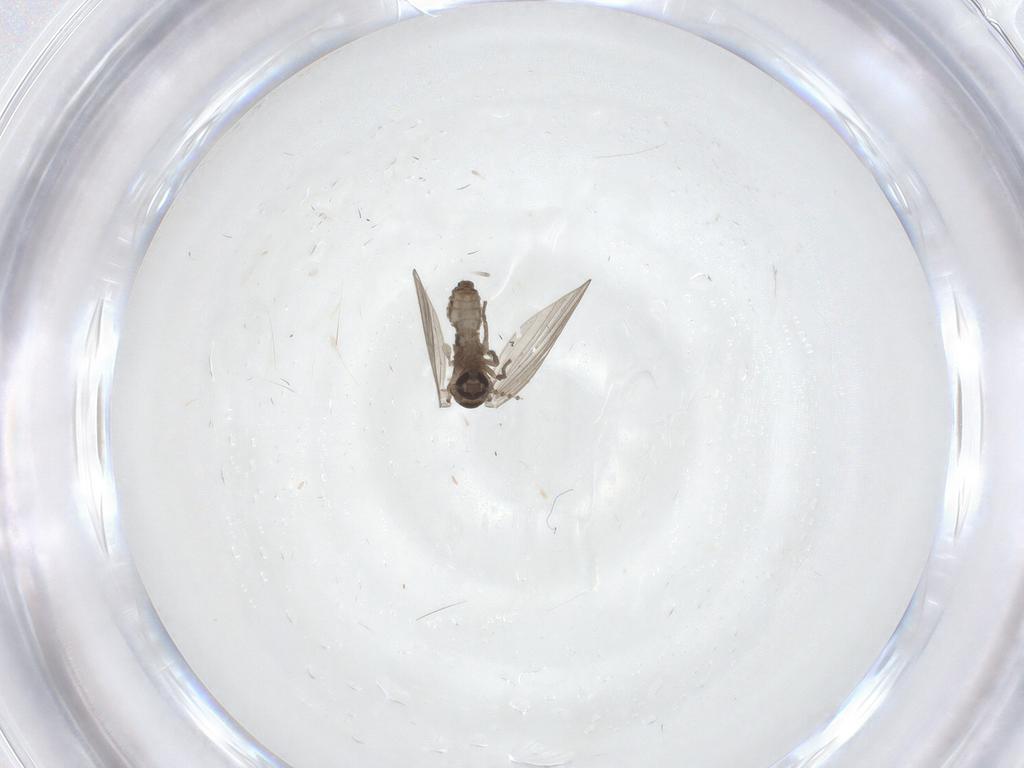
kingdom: Animalia
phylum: Arthropoda
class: Insecta
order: Diptera
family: Psychodidae
